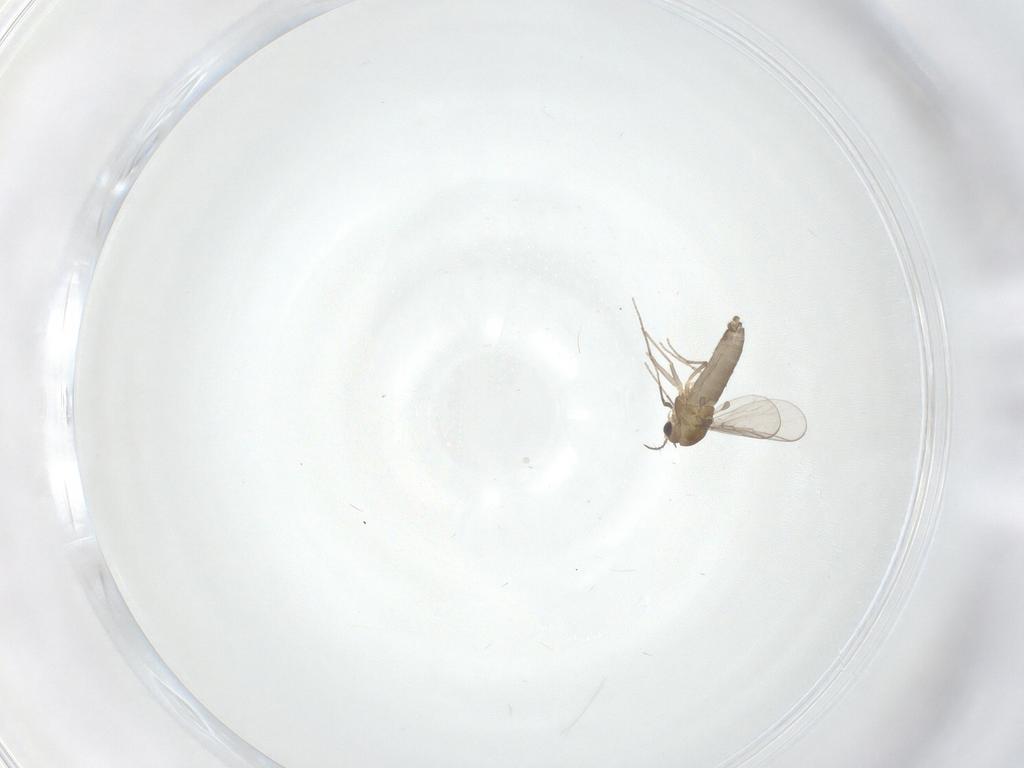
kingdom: Animalia
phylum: Arthropoda
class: Insecta
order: Diptera
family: Chironomidae
